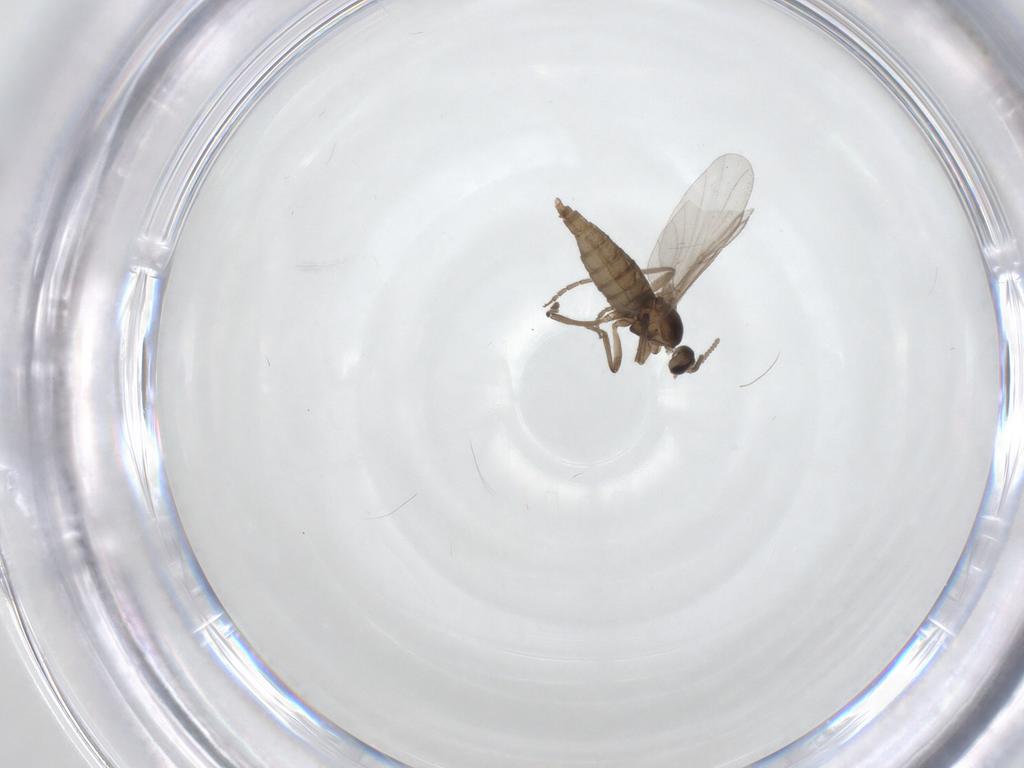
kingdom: Animalia
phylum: Arthropoda
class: Insecta
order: Diptera
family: Cecidomyiidae
